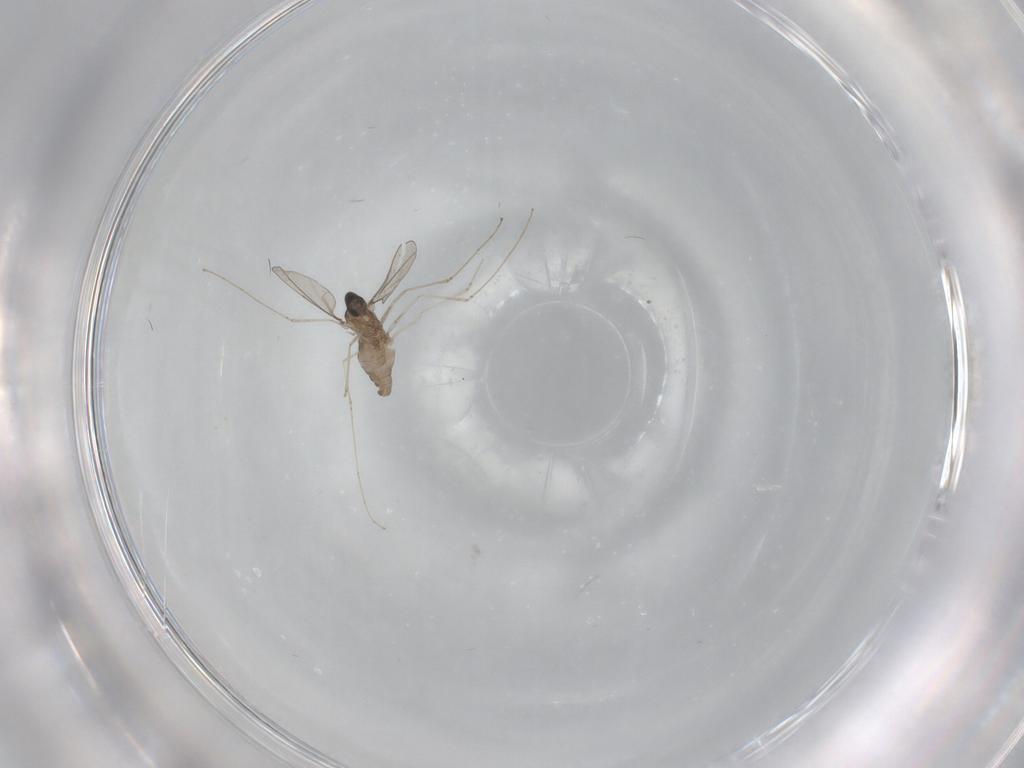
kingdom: Animalia
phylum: Arthropoda
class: Insecta
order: Diptera
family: Cecidomyiidae
